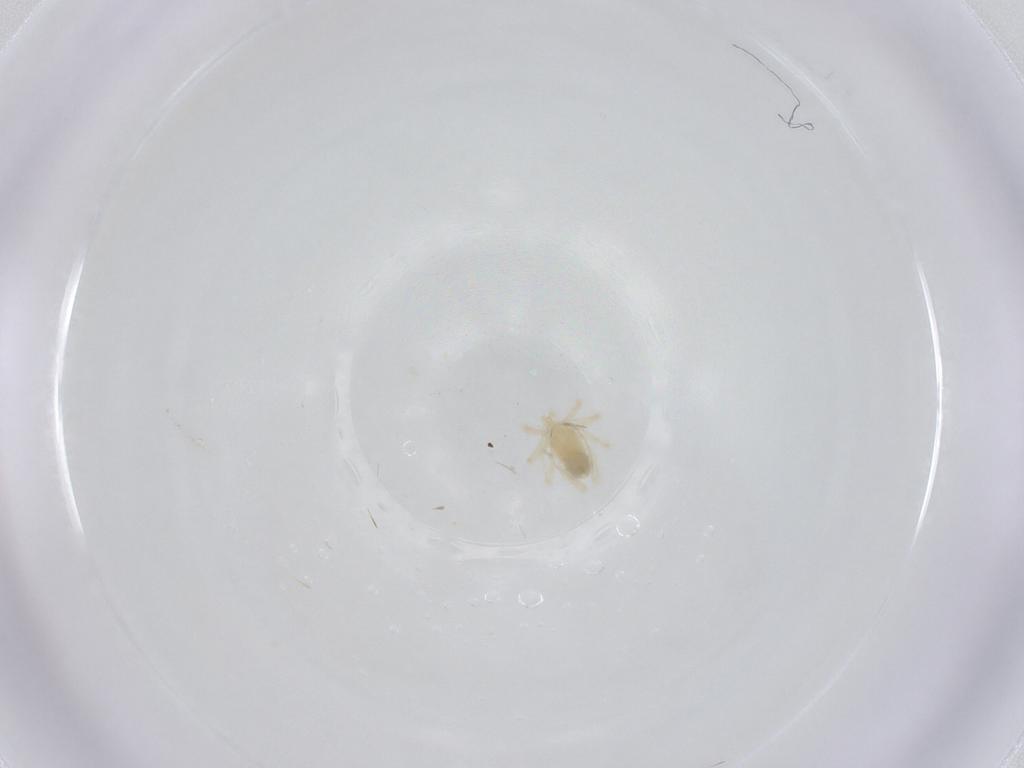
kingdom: Animalia
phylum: Arthropoda
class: Arachnida
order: Trombidiformes
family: Anystidae
